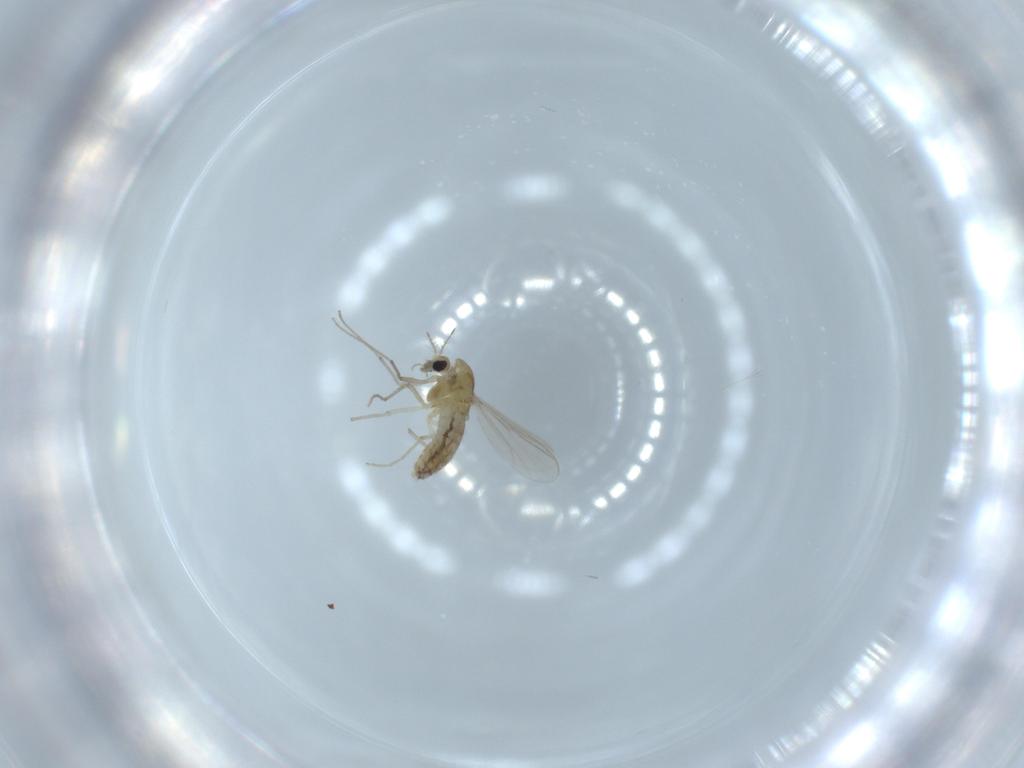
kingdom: Animalia
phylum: Arthropoda
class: Insecta
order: Diptera
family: Chironomidae
